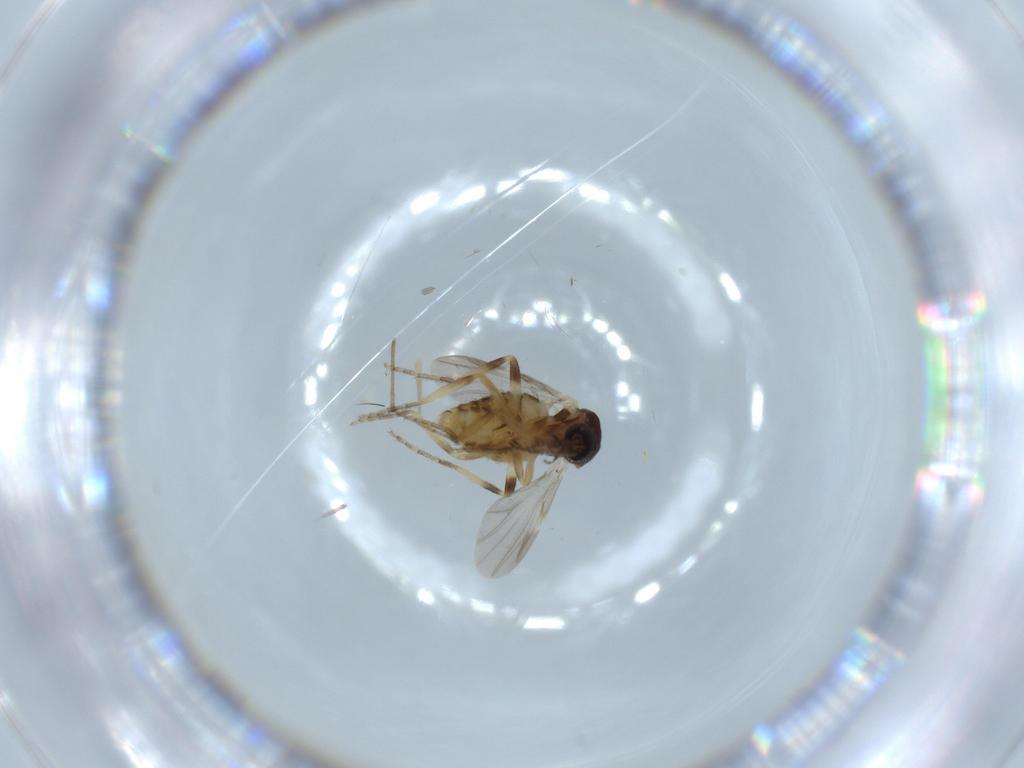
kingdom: Animalia
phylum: Arthropoda
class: Insecta
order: Diptera
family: Ceratopogonidae
